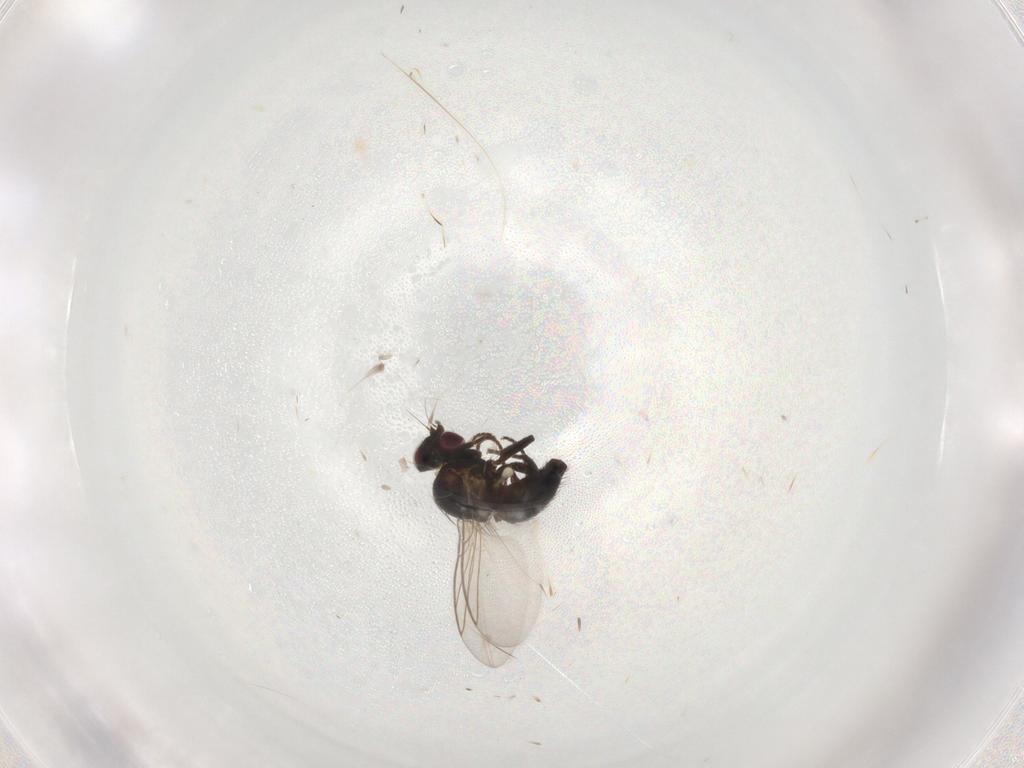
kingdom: Animalia
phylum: Arthropoda
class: Insecta
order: Diptera
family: Agromyzidae
